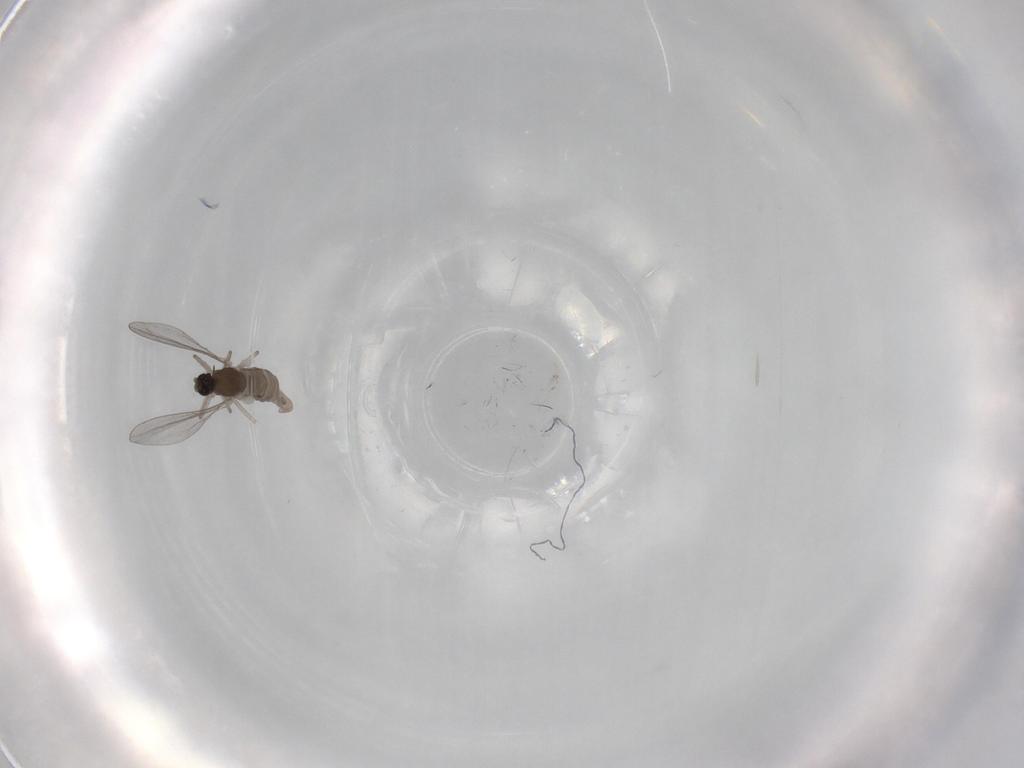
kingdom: Animalia
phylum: Arthropoda
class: Insecta
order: Diptera
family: Cecidomyiidae
